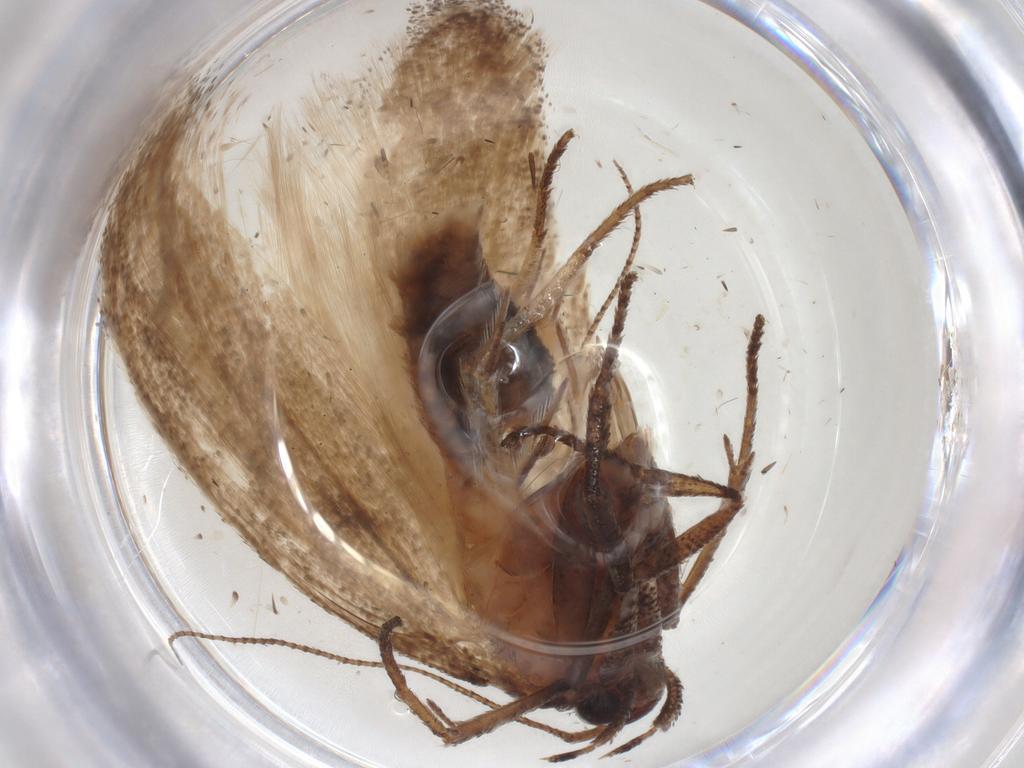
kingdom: Animalia
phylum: Arthropoda
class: Insecta
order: Lepidoptera
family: Cosmopterigidae
